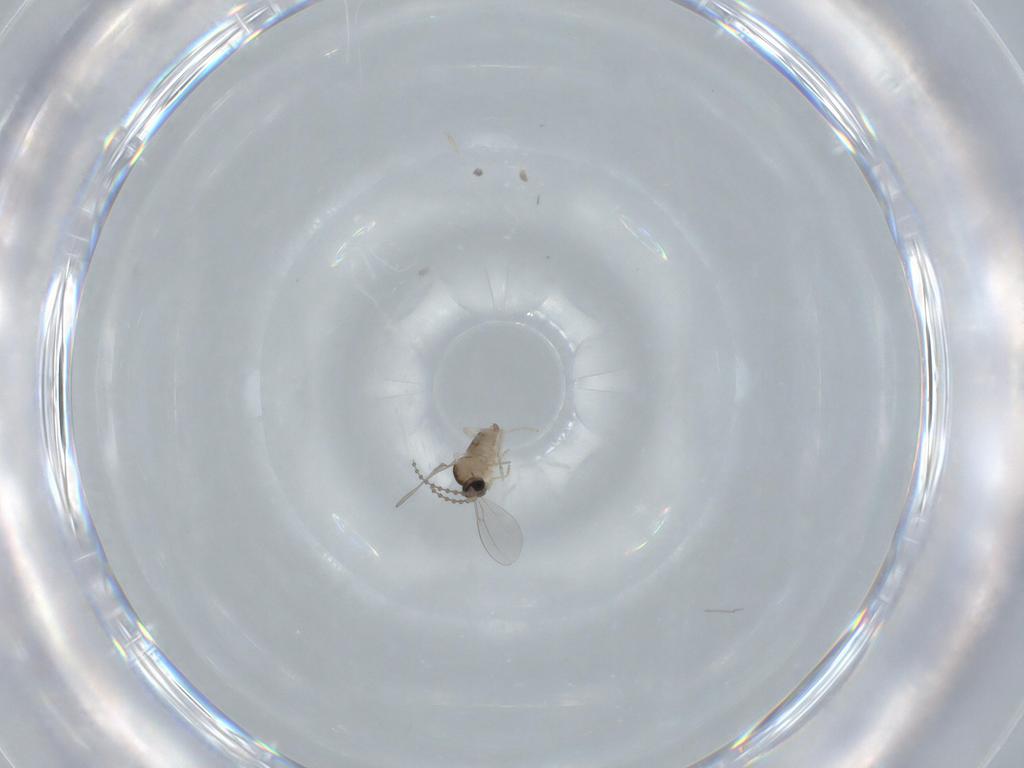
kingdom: Animalia
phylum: Arthropoda
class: Insecta
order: Diptera
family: Cecidomyiidae
